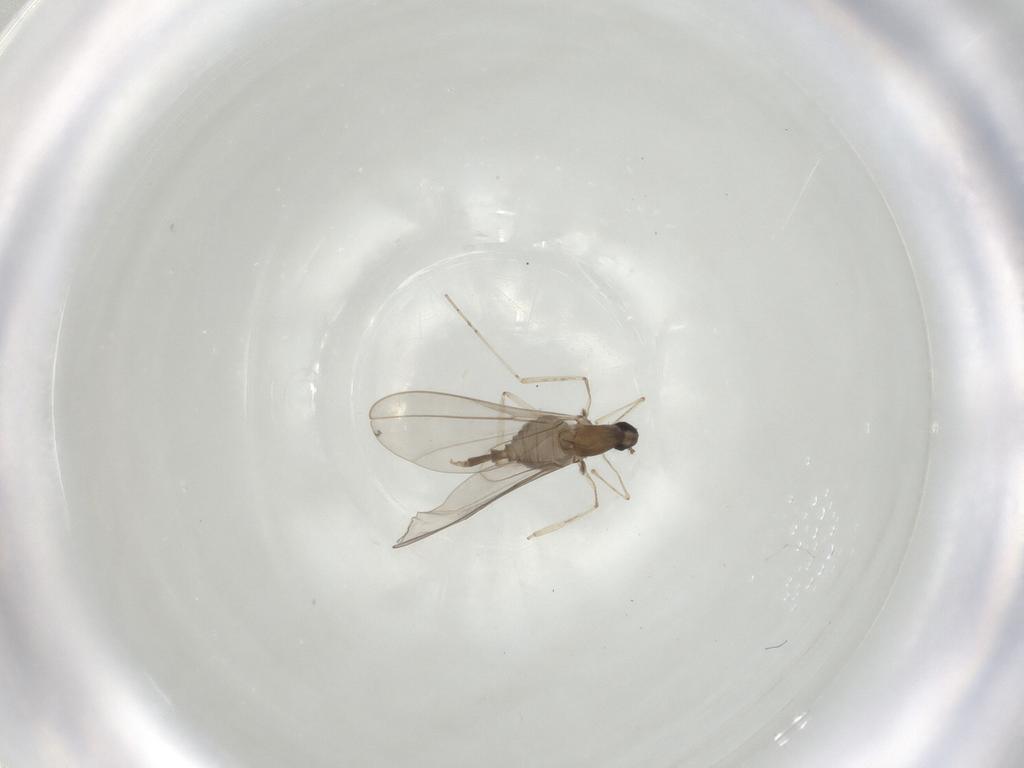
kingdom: Animalia
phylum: Arthropoda
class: Insecta
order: Diptera
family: Cecidomyiidae
